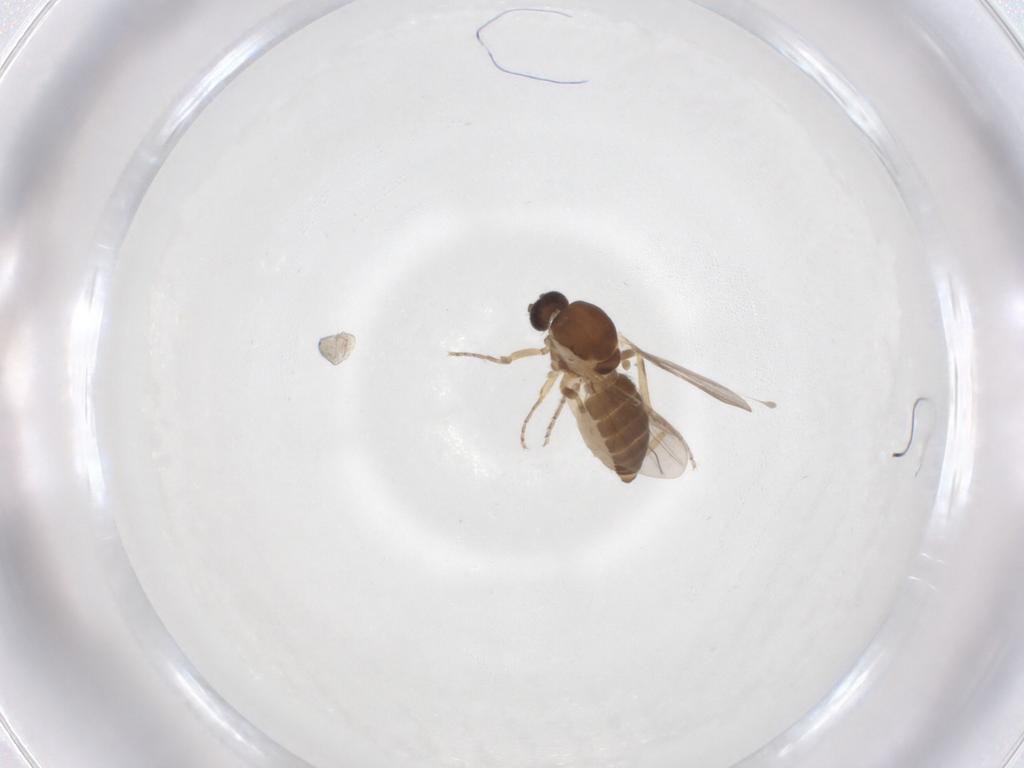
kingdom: Animalia
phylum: Arthropoda
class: Insecta
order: Diptera
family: Ceratopogonidae
